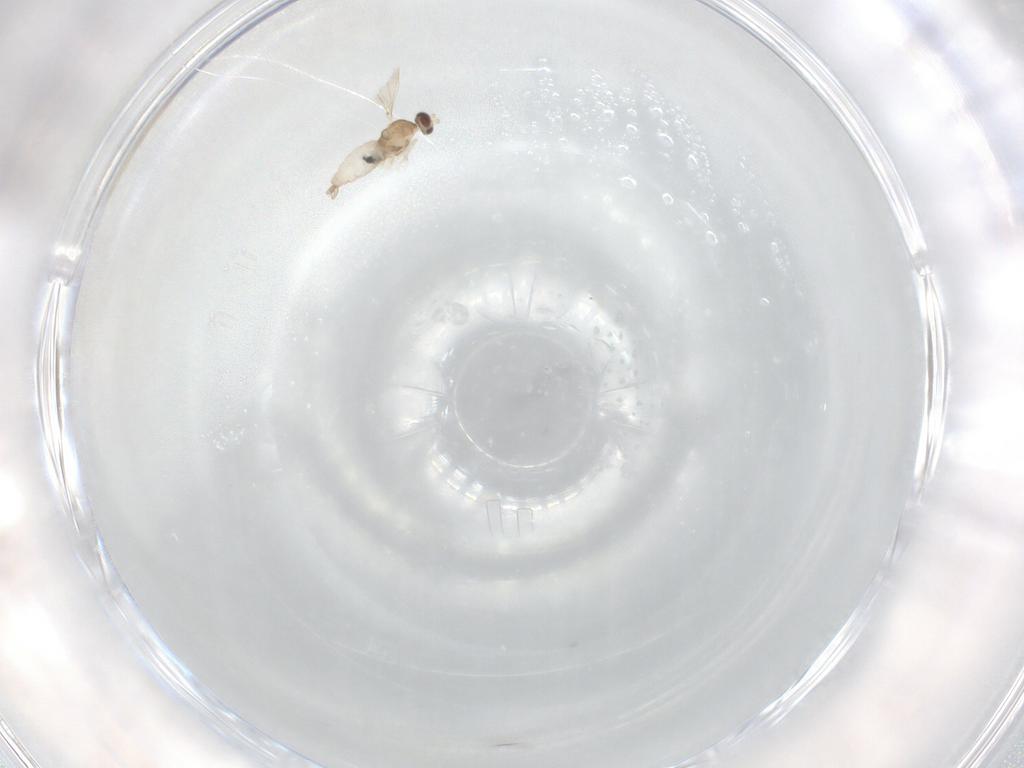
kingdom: Animalia
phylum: Arthropoda
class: Insecta
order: Diptera
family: Cecidomyiidae
